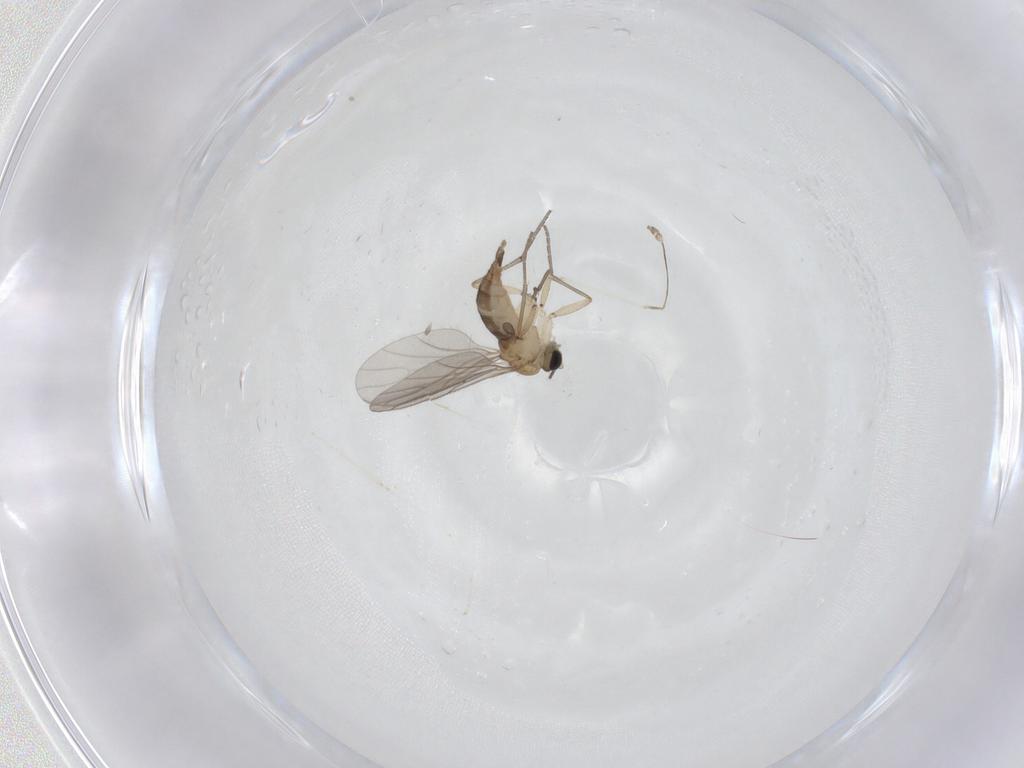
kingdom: Animalia
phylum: Arthropoda
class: Insecta
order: Diptera
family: Sciaridae
